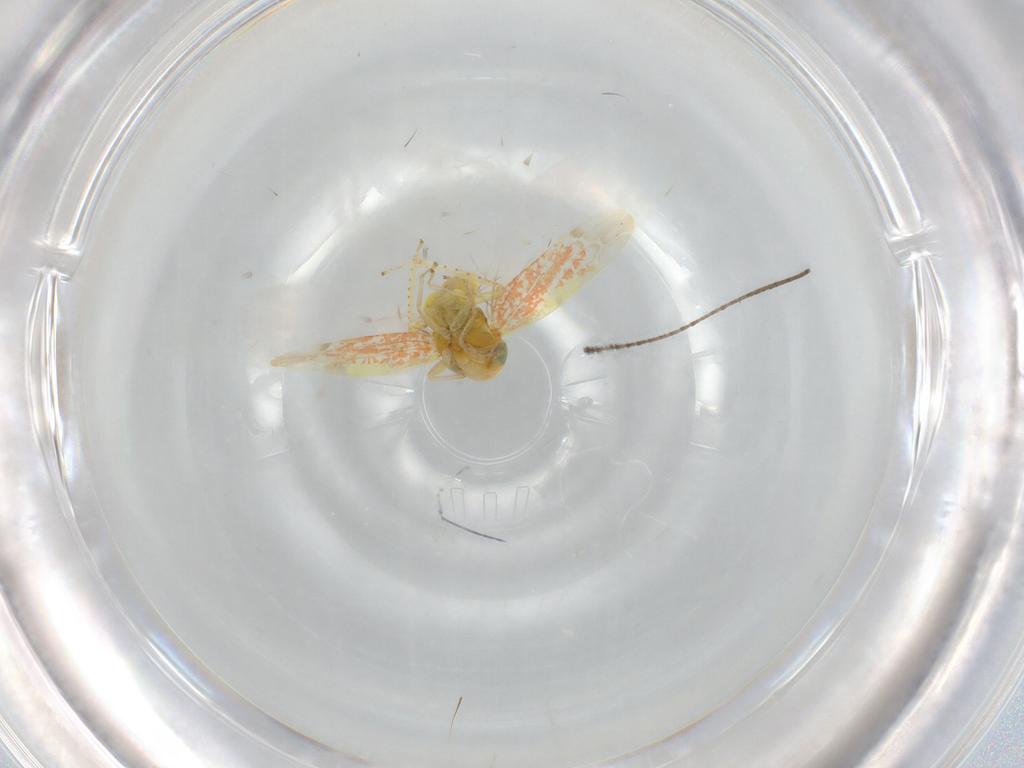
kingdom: Animalia
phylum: Arthropoda
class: Insecta
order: Hemiptera
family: Cicadellidae
